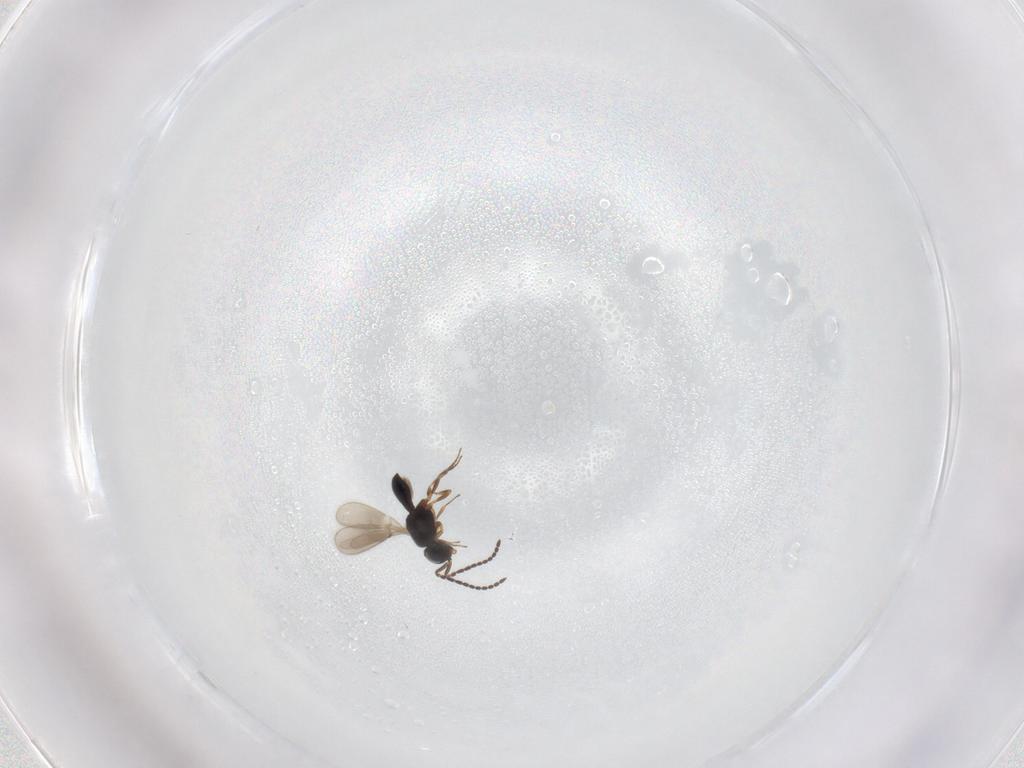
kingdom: Animalia
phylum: Arthropoda
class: Insecta
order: Hymenoptera
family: Scelionidae
